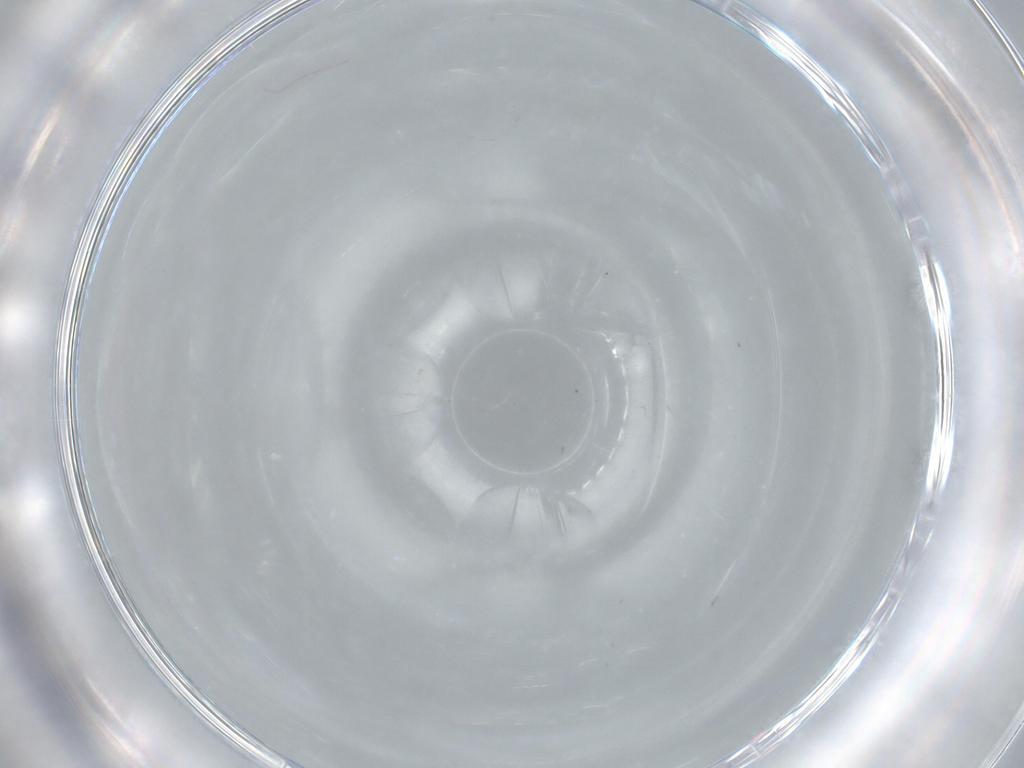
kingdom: Animalia
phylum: Arthropoda
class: Insecta
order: Diptera
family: Cecidomyiidae
